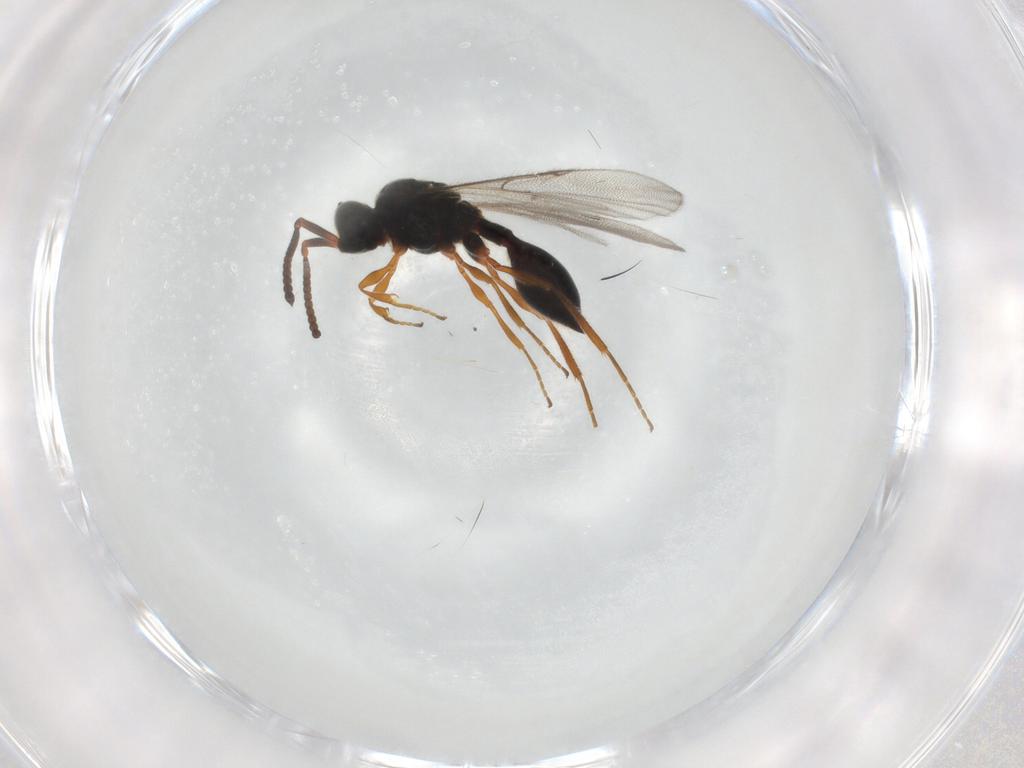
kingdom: Animalia
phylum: Arthropoda
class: Insecta
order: Hymenoptera
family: Diapriidae
